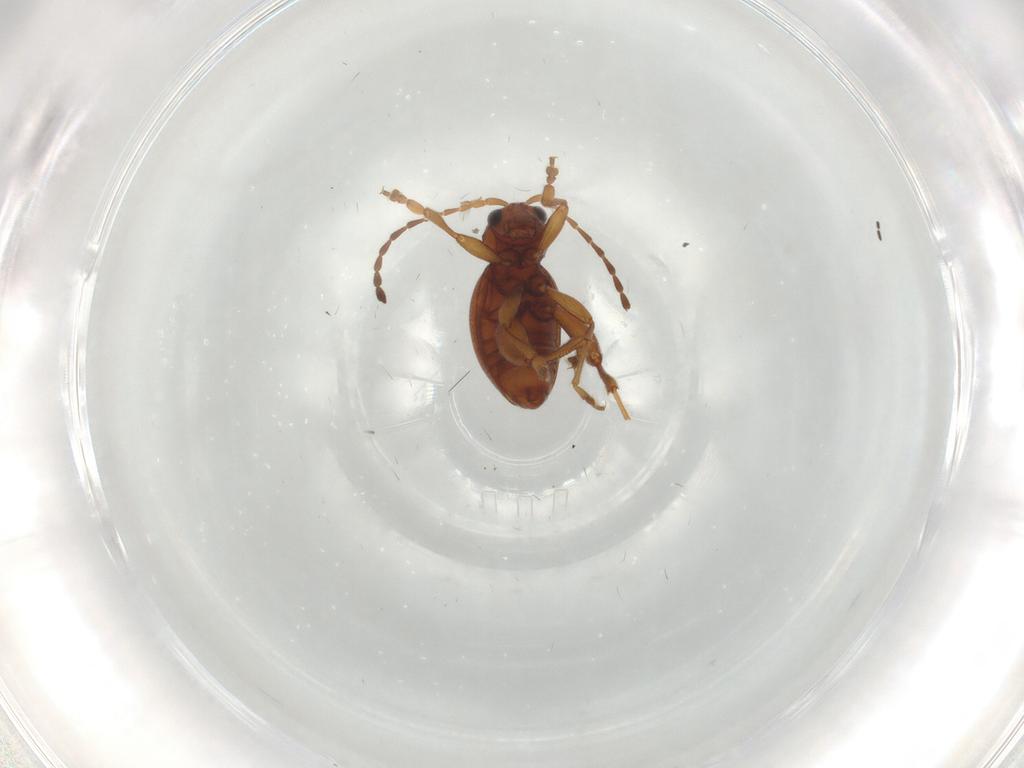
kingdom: Animalia
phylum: Arthropoda
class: Insecta
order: Coleoptera
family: Chrysomelidae
